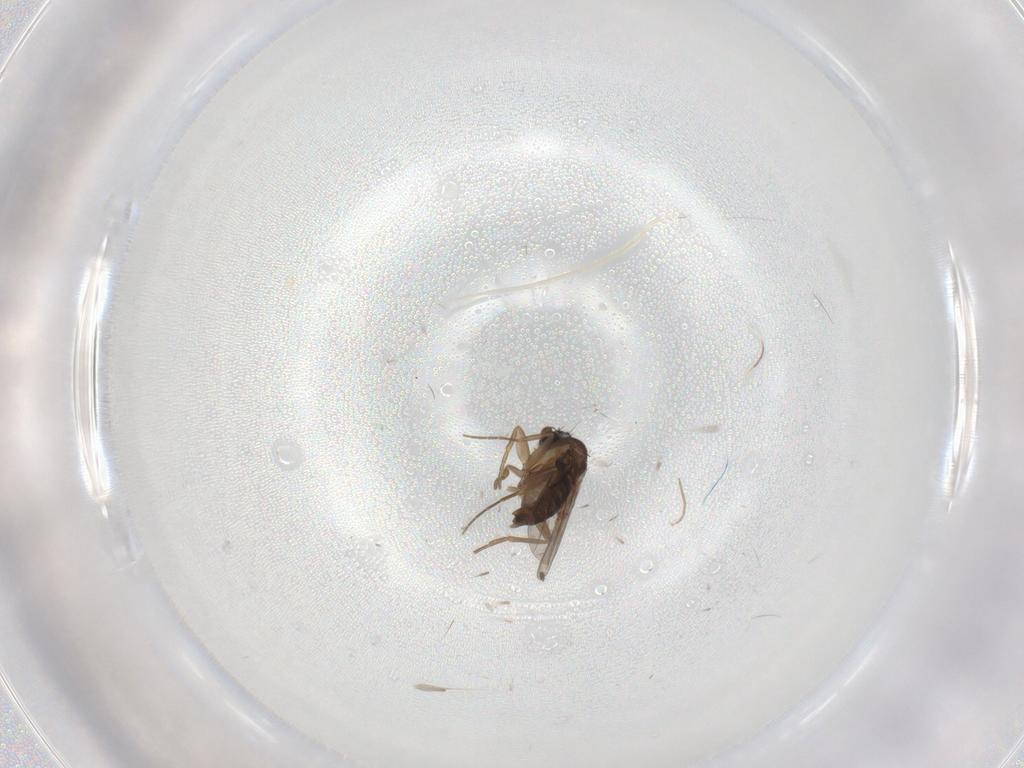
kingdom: Animalia
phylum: Arthropoda
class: Insecta
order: Diptera
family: Phoridae
